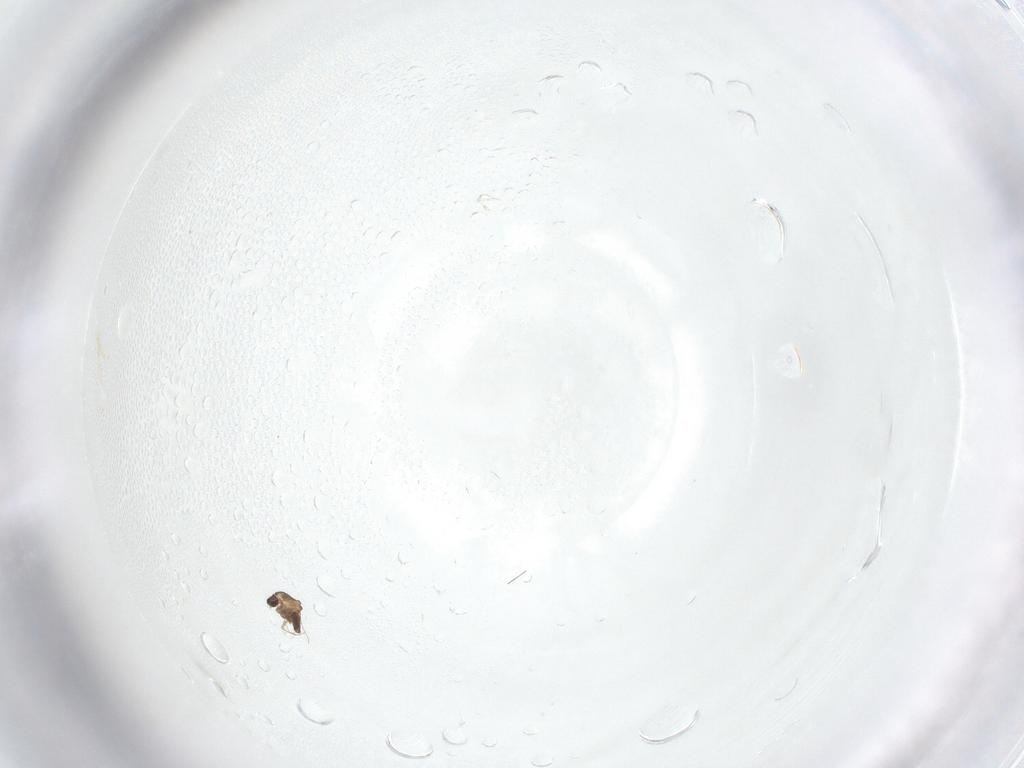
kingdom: Animalia
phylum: Arthropoda
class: Insecta
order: Diptera
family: Chironomidae
